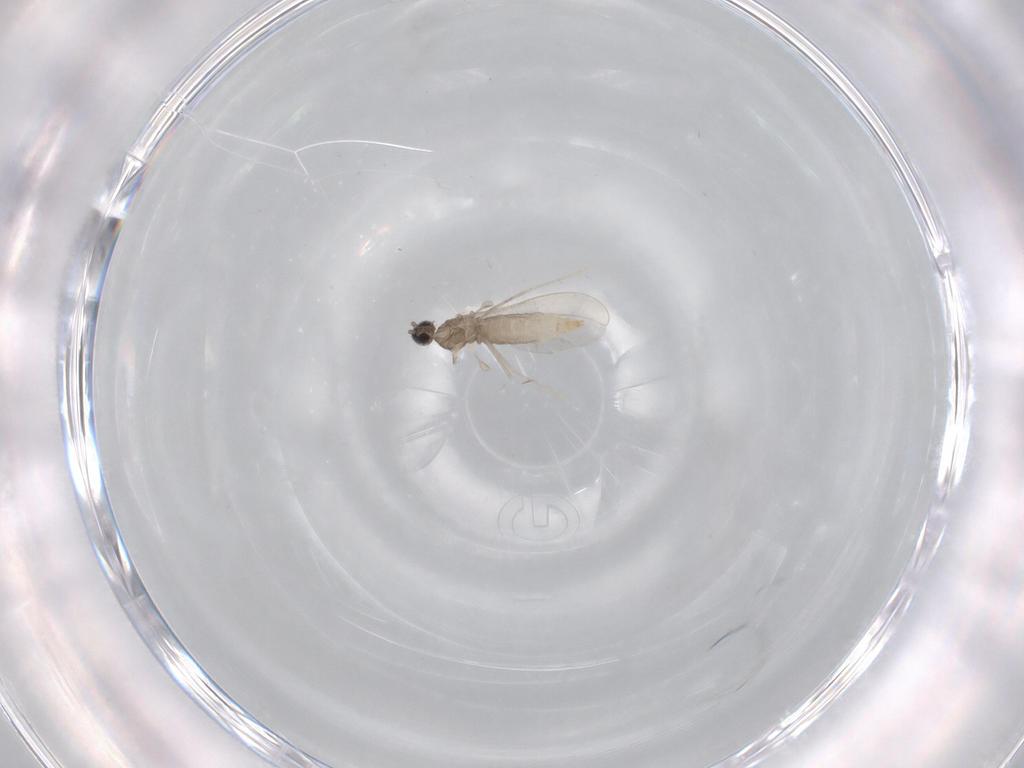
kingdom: Animalia
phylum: Arthropoda
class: Insecta
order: Diptera
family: Cecidomyiidae
